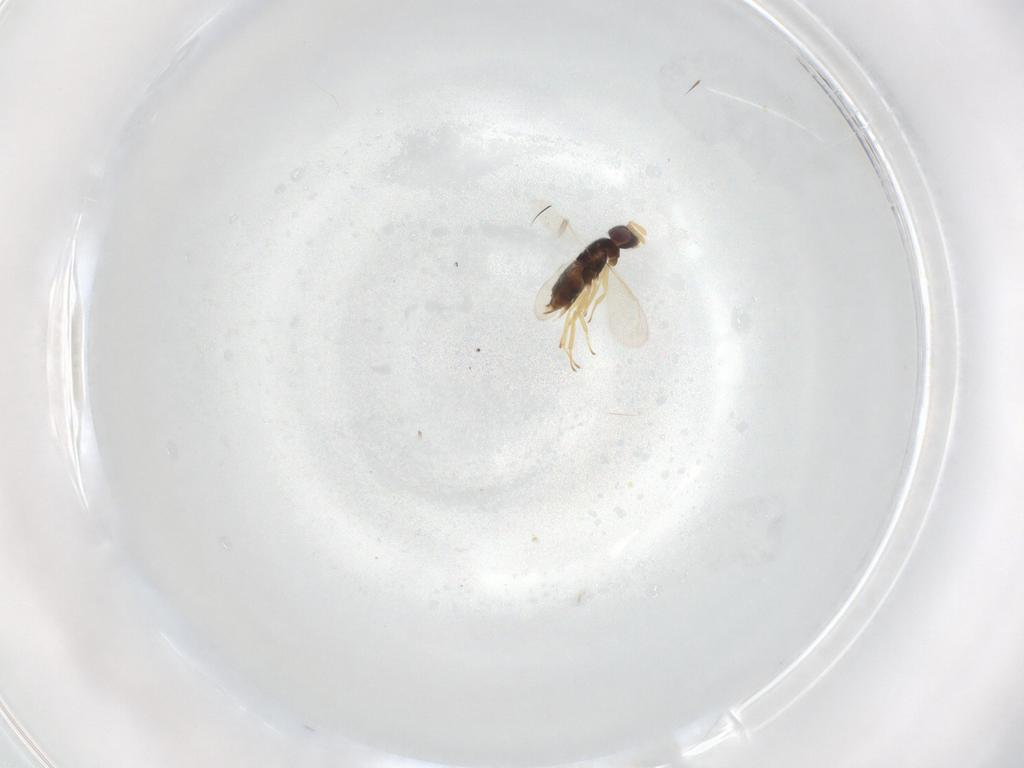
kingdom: Animalia
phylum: Arthropoda
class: Insecta
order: Hymenoptera
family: Aphelinidae
